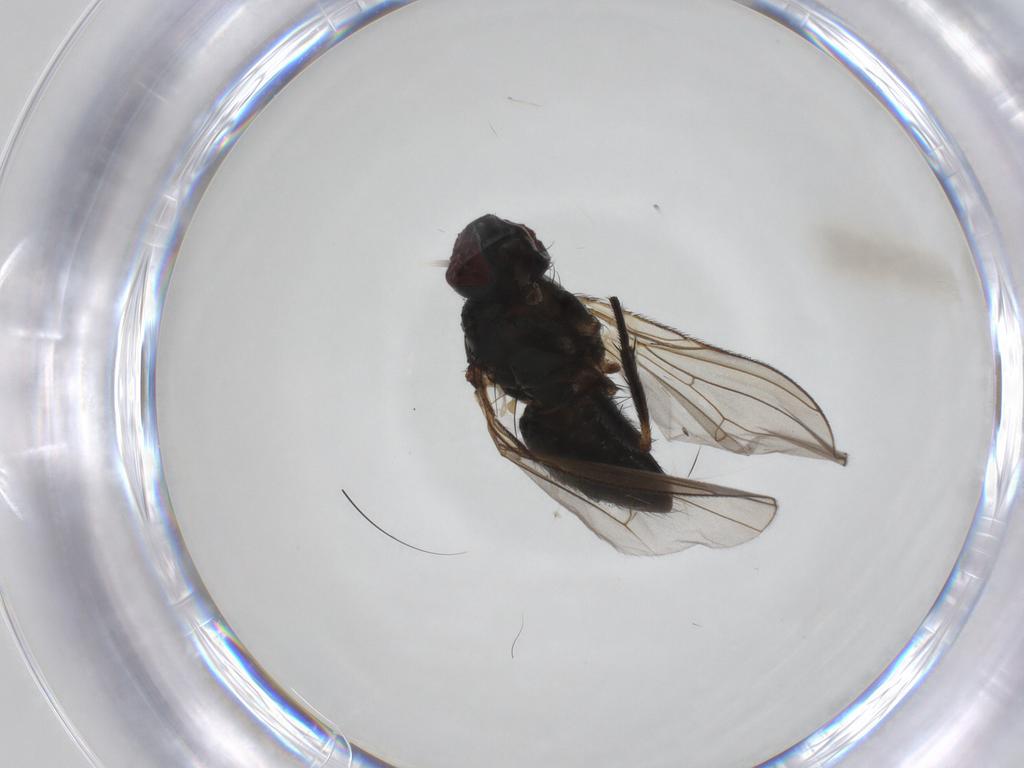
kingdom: Animalia
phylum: Arthropoda
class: Insecta
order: Diptera
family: Muscidae
